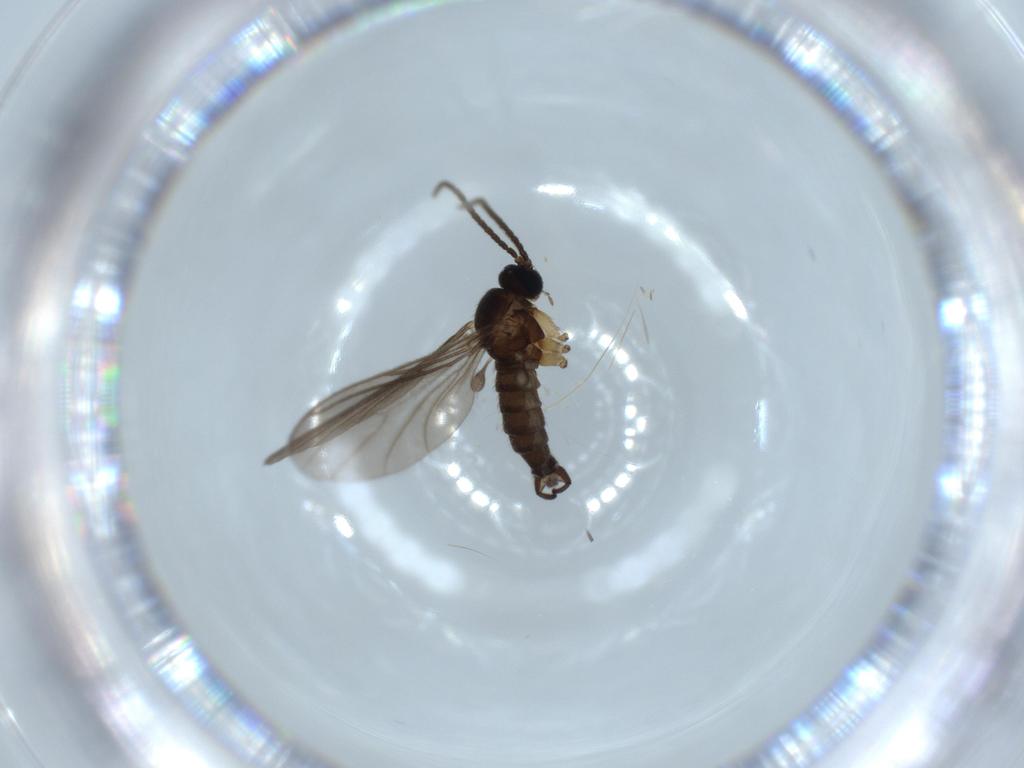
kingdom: Animalia
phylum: Arthropoda
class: Insecta
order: Diptera
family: Sciaridae
